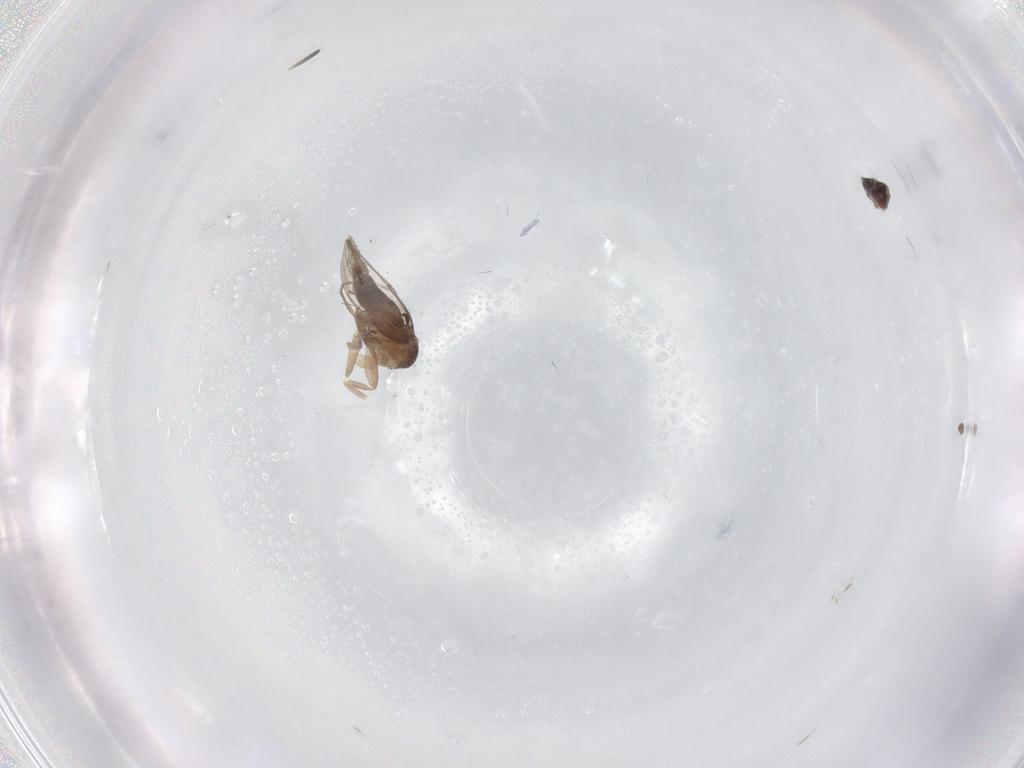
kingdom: Animalia
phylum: Arthropoda
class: Insecta
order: Diptera
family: Phoridae
